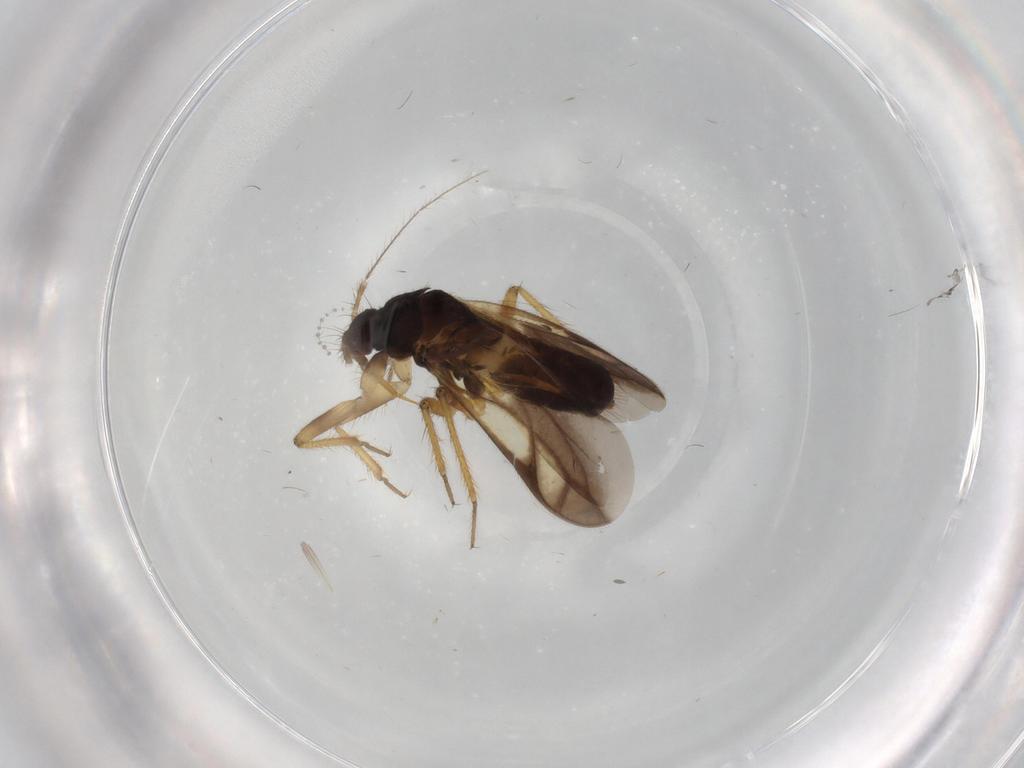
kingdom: Animalia
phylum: Arthropoda
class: Insecta
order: Hemiptera
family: Ceratocombidae
